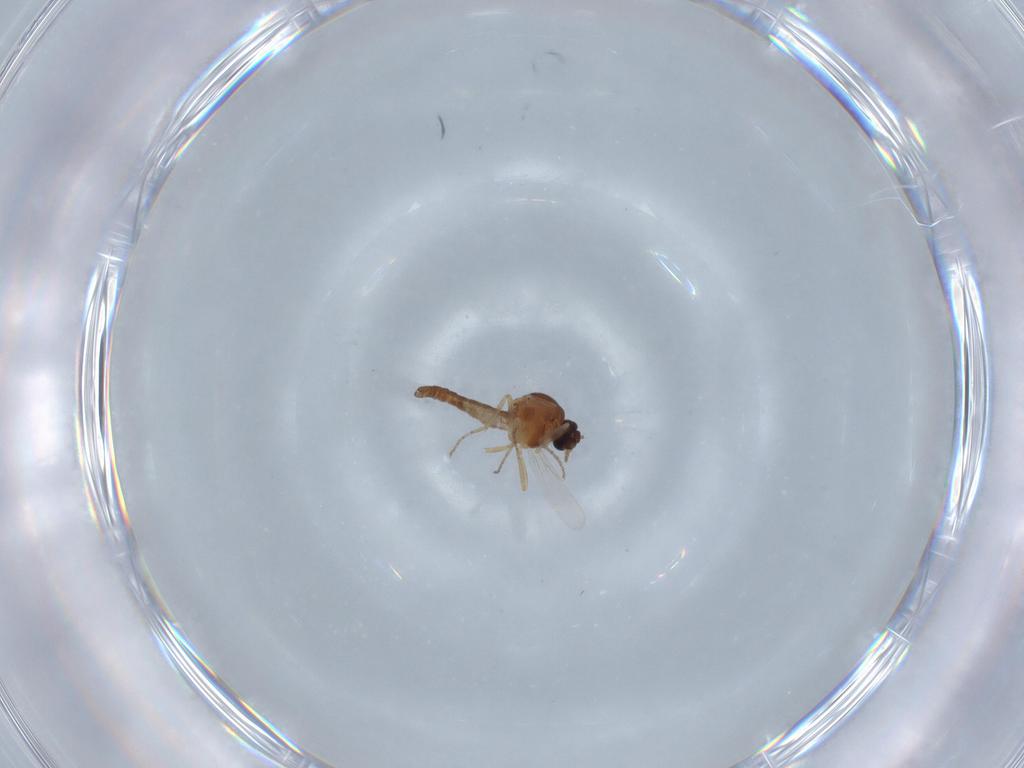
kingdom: Animalia
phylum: Arthropoda
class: Insecta
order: Diptera
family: Ceratopogonidae
